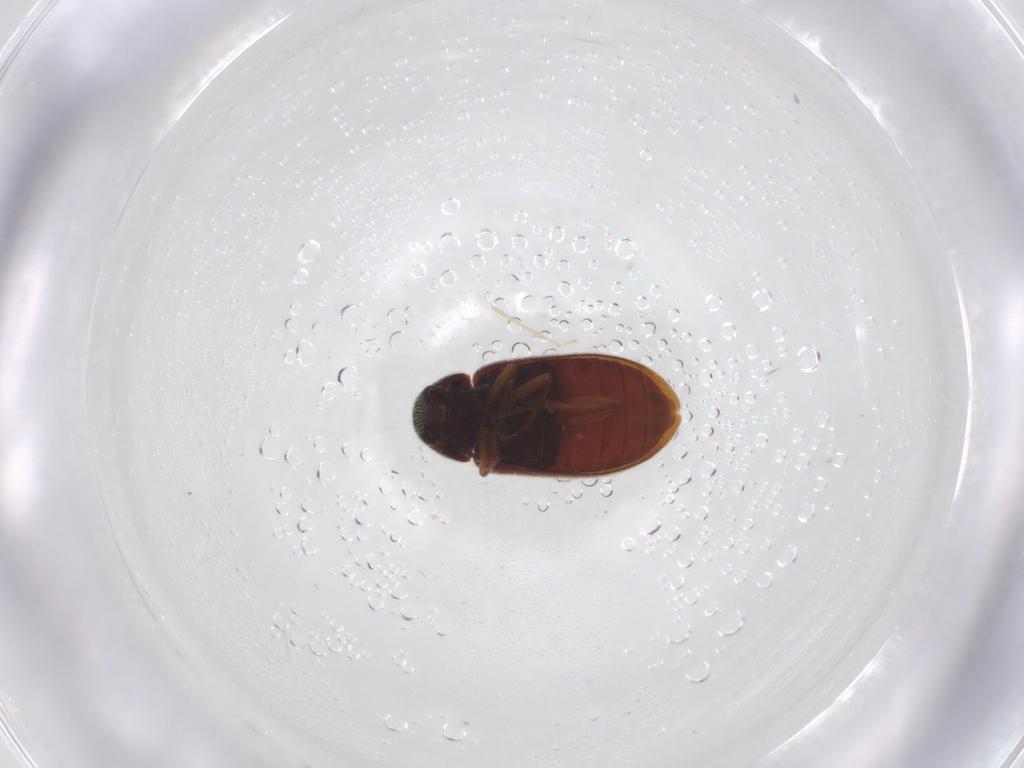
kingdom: Animalia
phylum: Arthropoda
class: Insecta
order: Coleoptera
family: Rhadalidae
